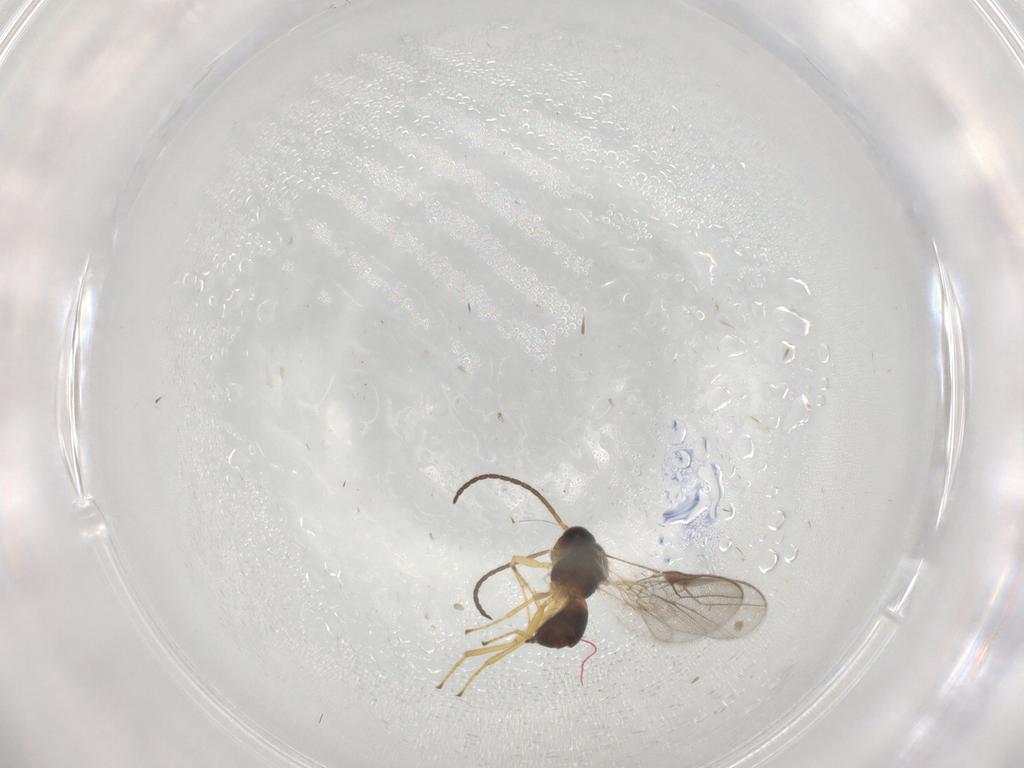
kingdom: Animalia
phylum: Arthropoda
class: Insecta
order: Hymenoptera
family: Braconidae
